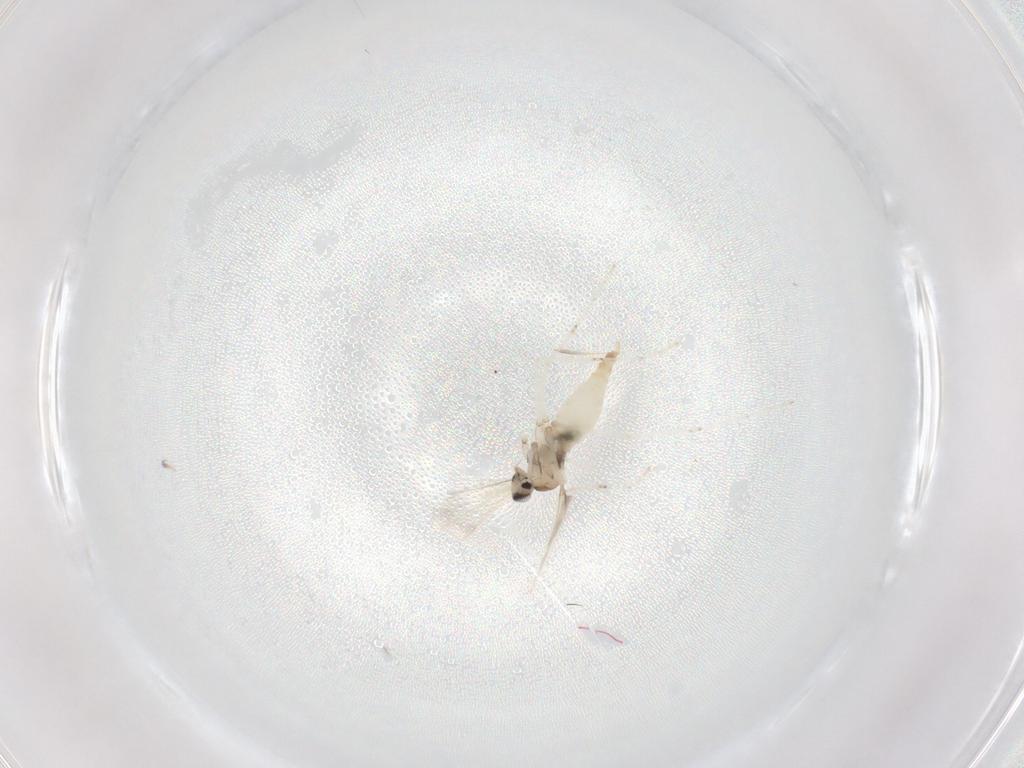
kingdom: Animalia
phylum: Arthropoda
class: Insecta
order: Diptera
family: Cecidomyiidae
